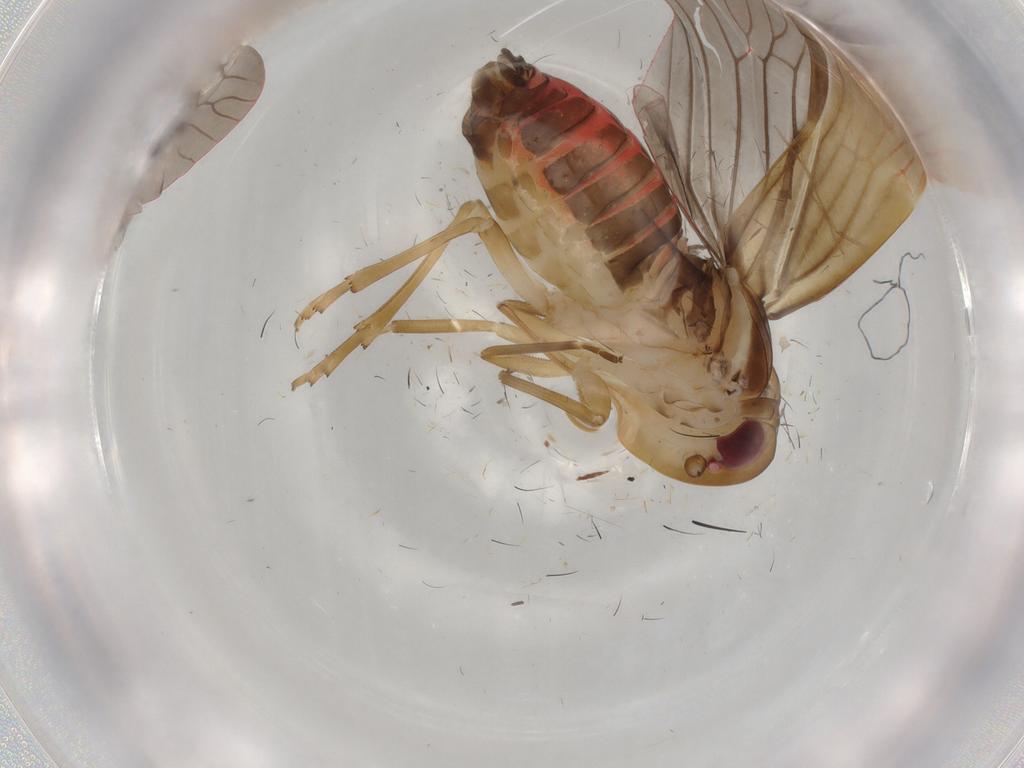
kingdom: Animalia
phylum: Arthropoda
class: Insecta
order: Hemiptera
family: Achilidae
